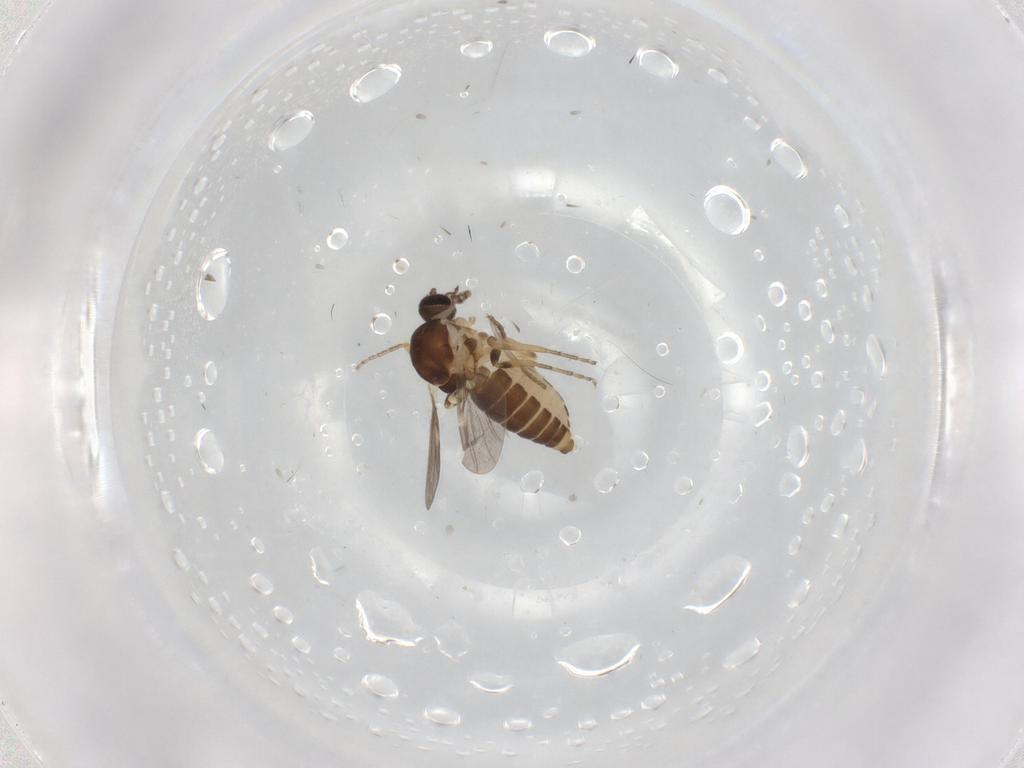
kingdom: Animalia
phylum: Arthropoda
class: Insecta
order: Diptera
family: Ceratopogonidae
